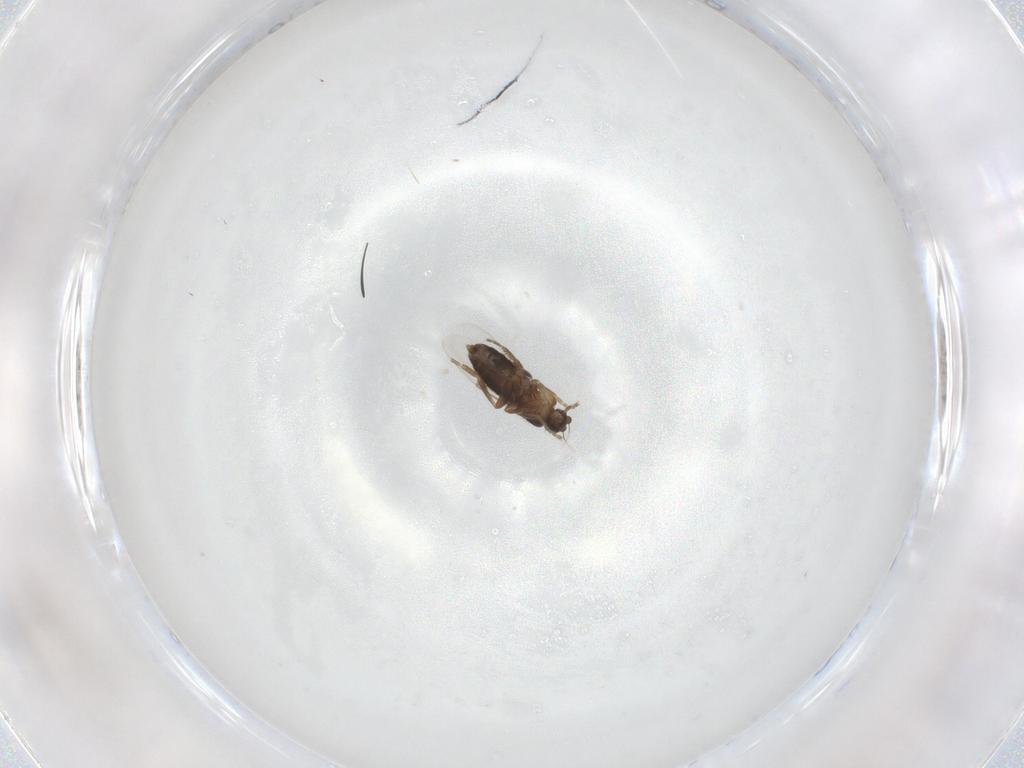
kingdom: Animalia
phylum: Arthropoda
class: Insecta
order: Diptera
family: Phoridae
